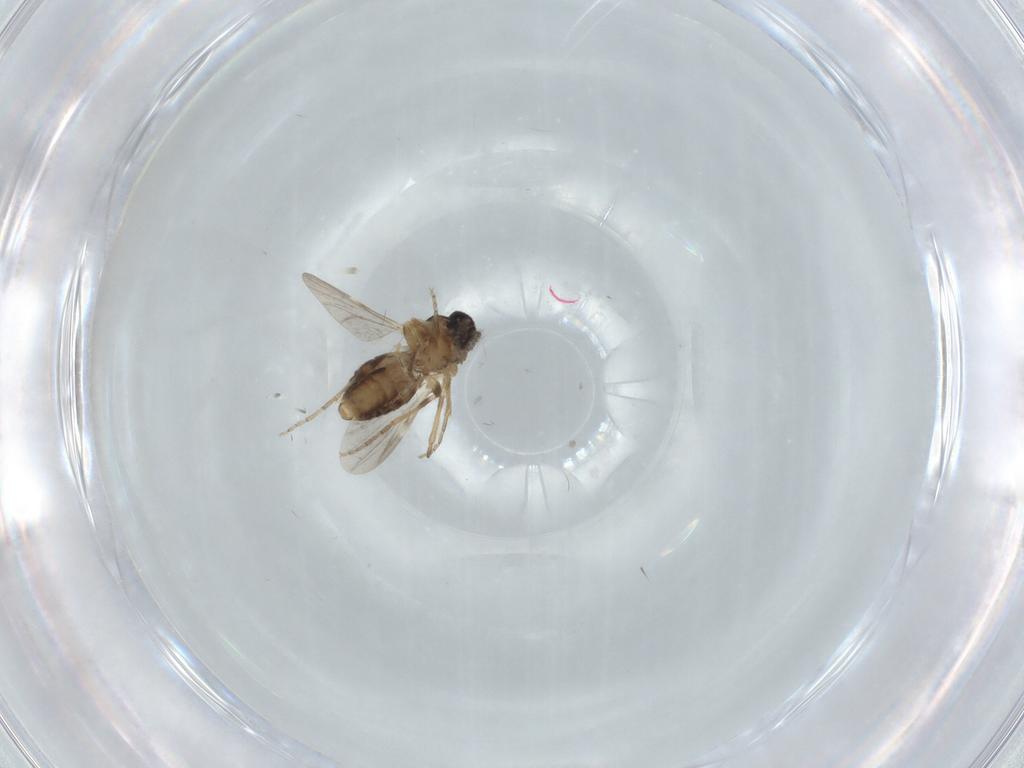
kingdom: Animalia
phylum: Arthropoda
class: Insecta
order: Diptera
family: Ceratopogonidae
